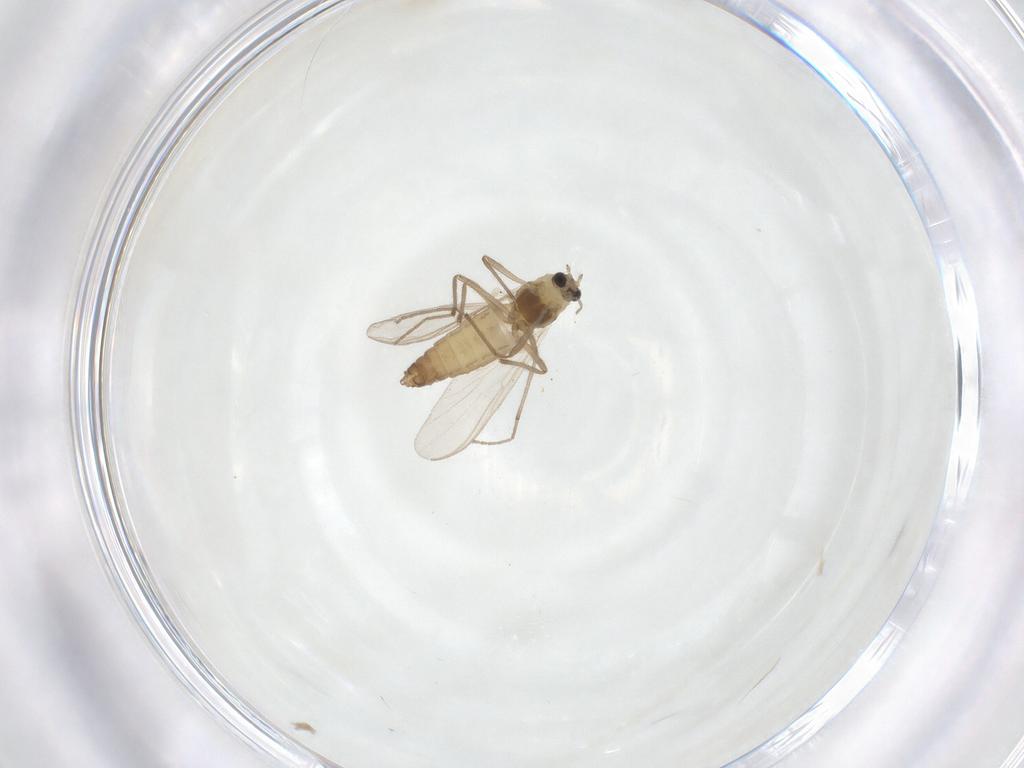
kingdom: Animalia
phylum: Arthropoda
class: Insecta
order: Diptera
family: Chironomidae
